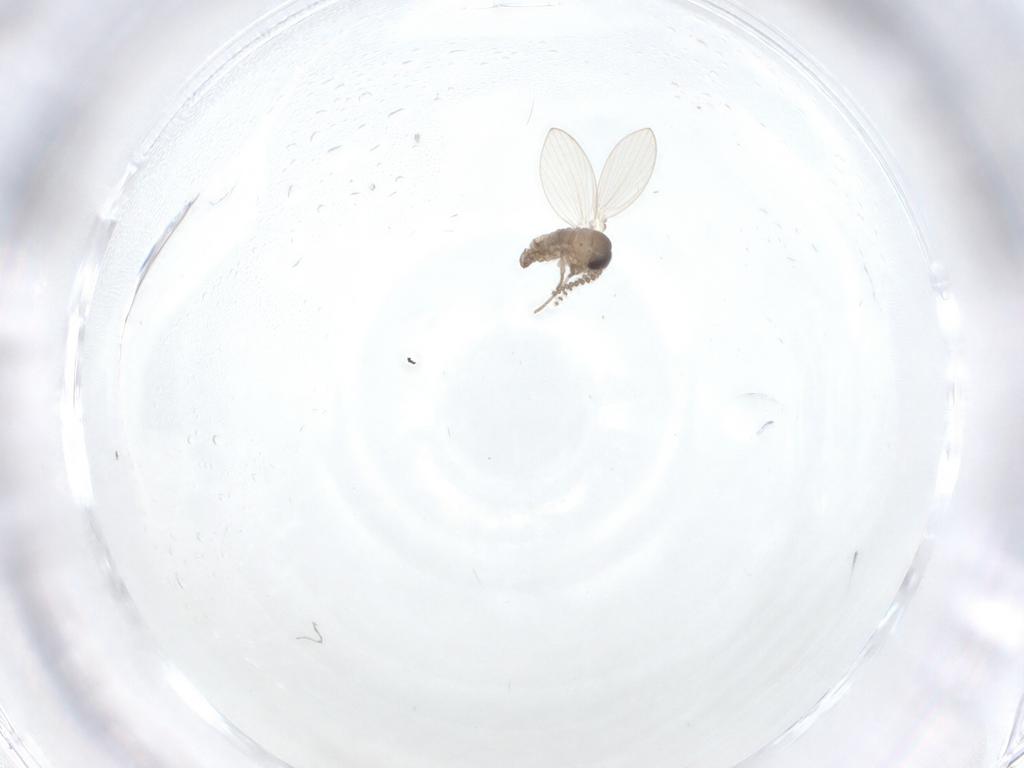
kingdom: Animalia
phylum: Arthropoda
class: Insecta
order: Diptera
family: Psychodidae
